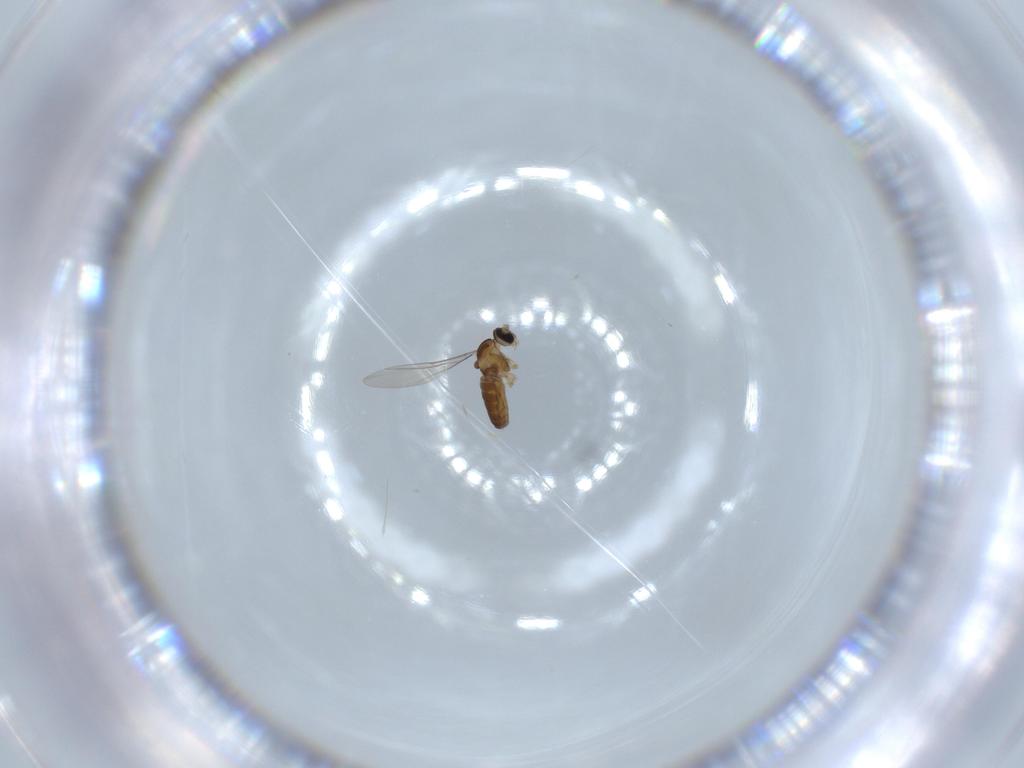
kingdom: Animalia
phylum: Arthropoda
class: Insecta
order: Diptera
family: Cecidomyiidae
